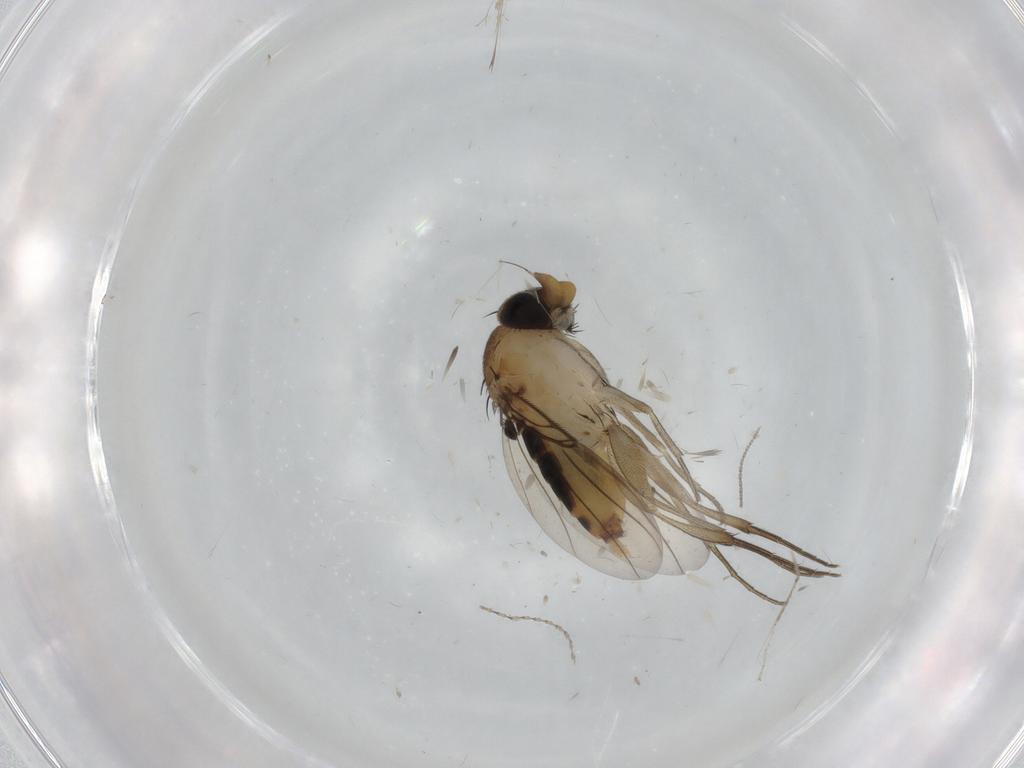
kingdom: Animalia
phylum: Arthropoda
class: Insecta
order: Diptera
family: Phoridae
